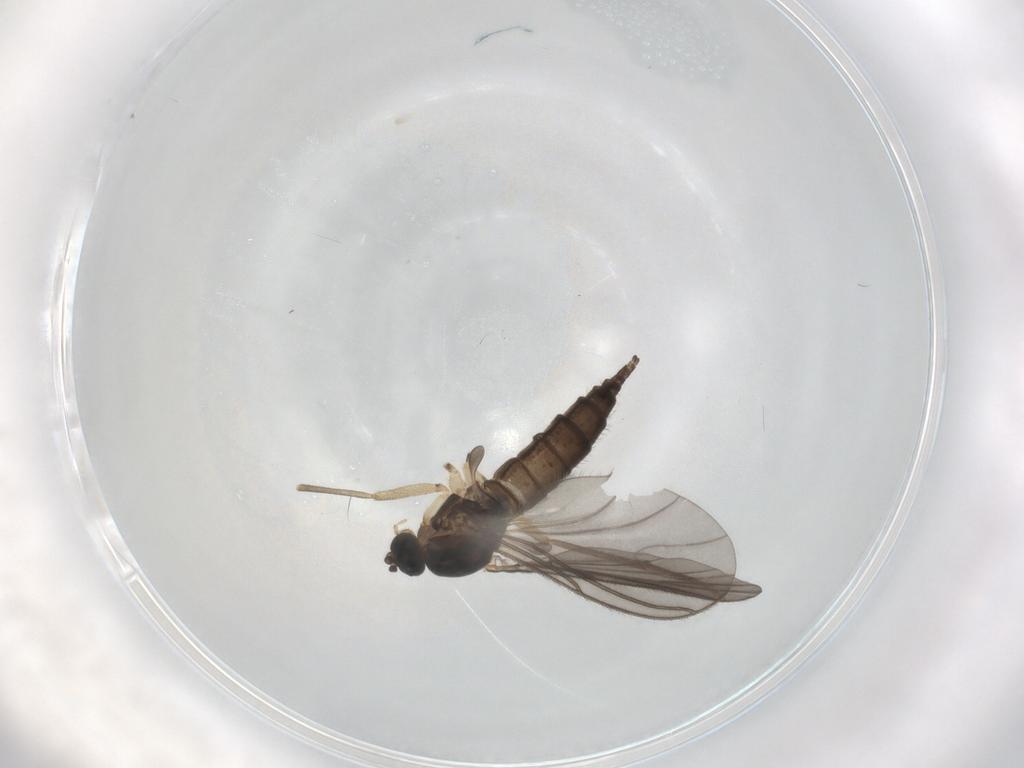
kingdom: Animalia
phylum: Arthropoda
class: Insecta
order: Diptera
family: Sciaridae
